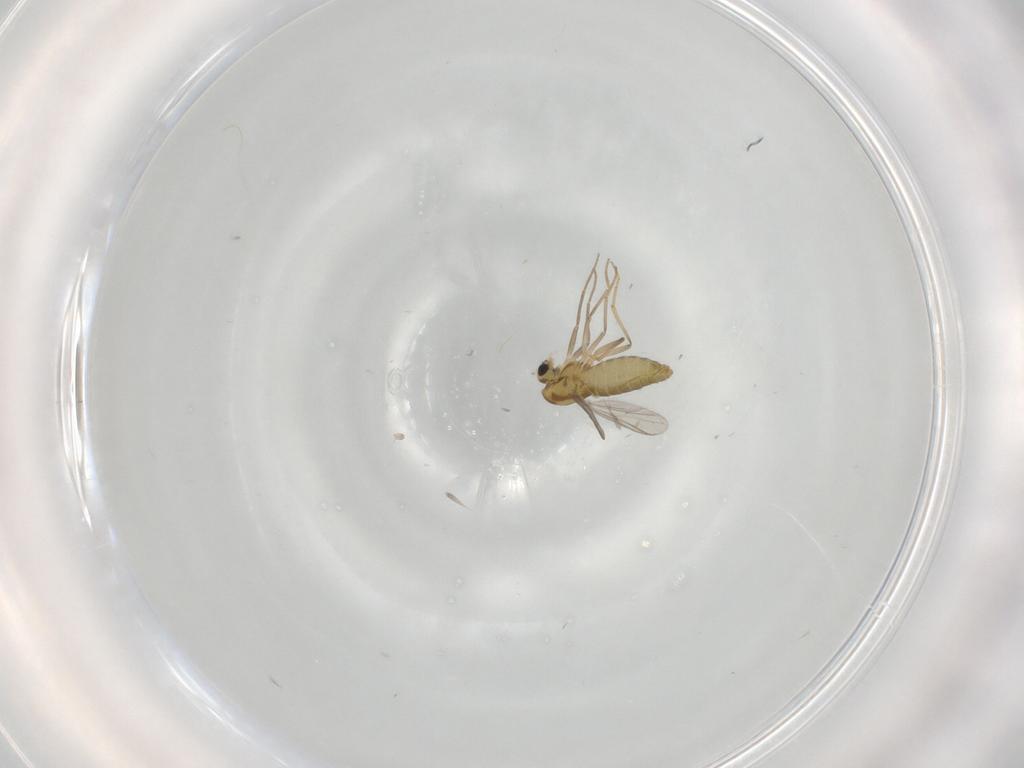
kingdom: Animalia
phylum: Arthropoda
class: Insecta
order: Diptera
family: Chironomidae
